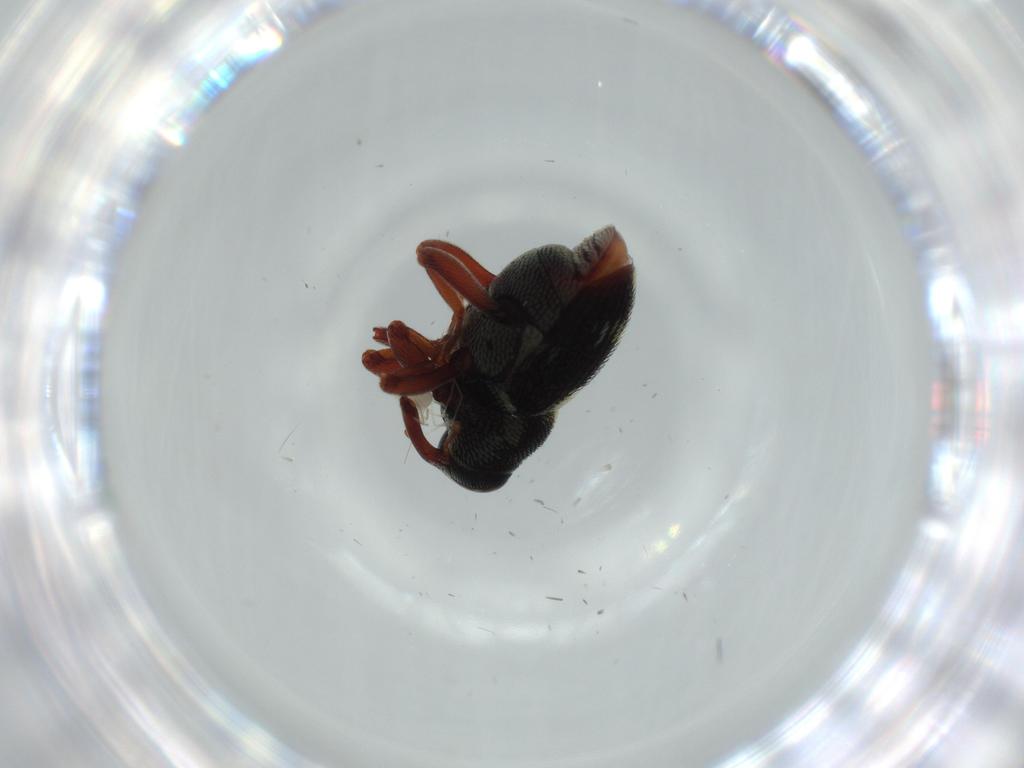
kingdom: Animalia
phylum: Arthropoda
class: Insecta
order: Coleoptera
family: Curculionidae
